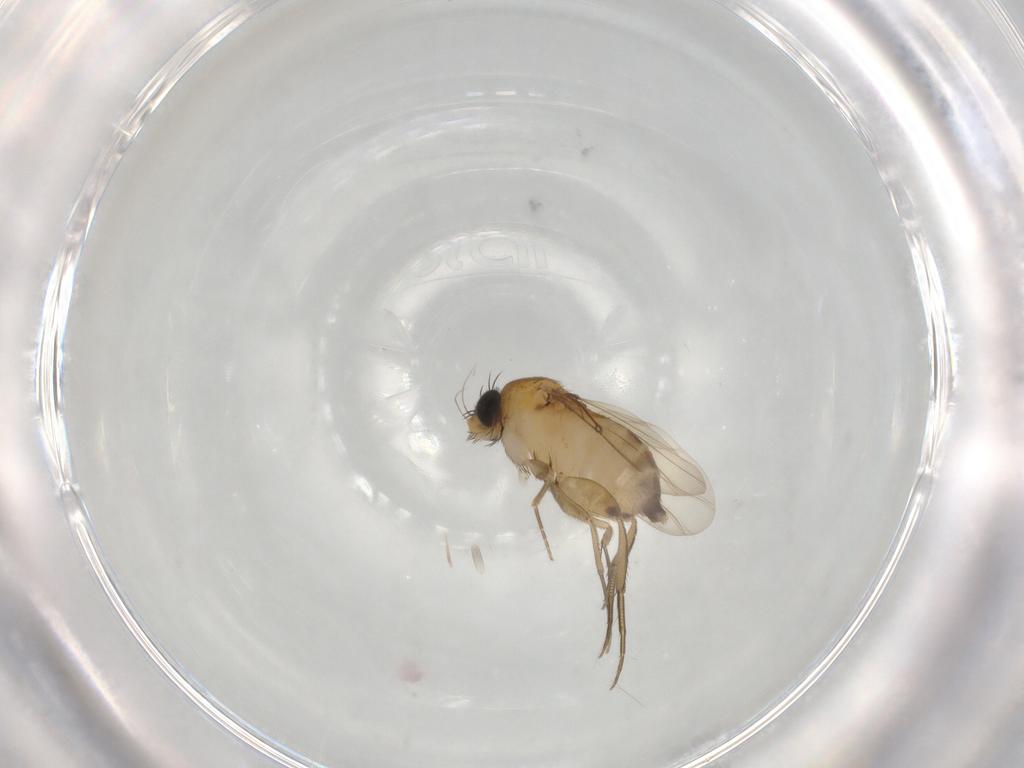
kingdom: Animalia
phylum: Arthropoda
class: Insecta
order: Diptera
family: Phoridae
